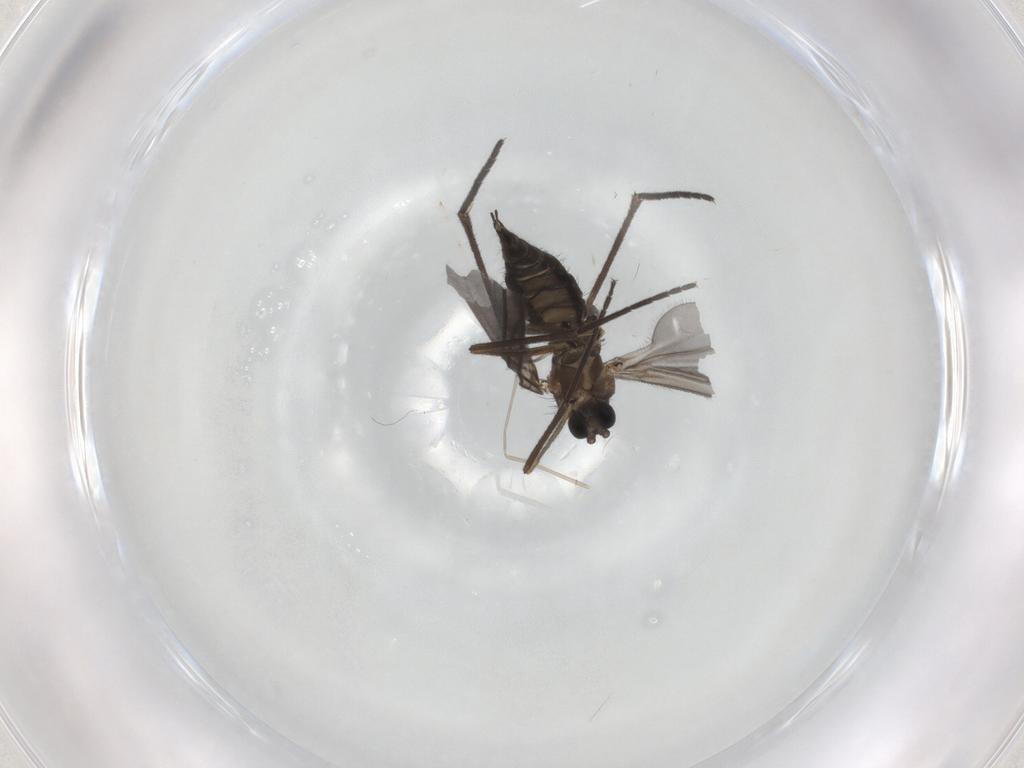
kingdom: Animalia
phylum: Arthropoda
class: Insecta
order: Diptera
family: Sciaridae
